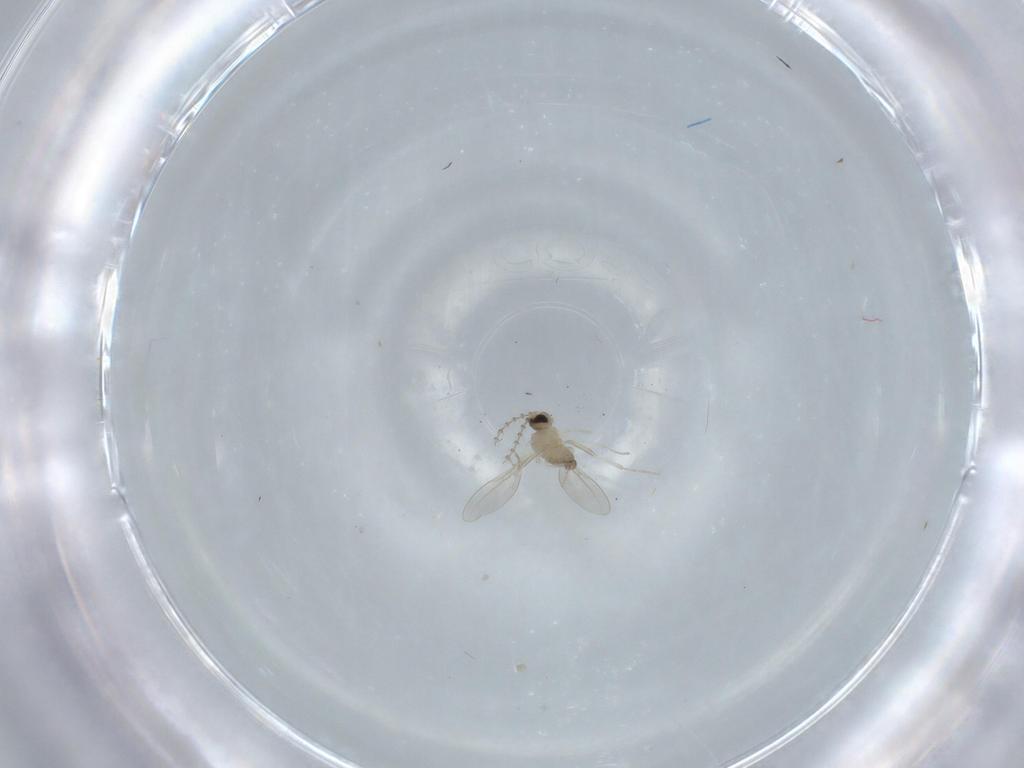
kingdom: Animalia
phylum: Arthropoda
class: Insecta
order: Diptera
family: Cecidomyiidae
